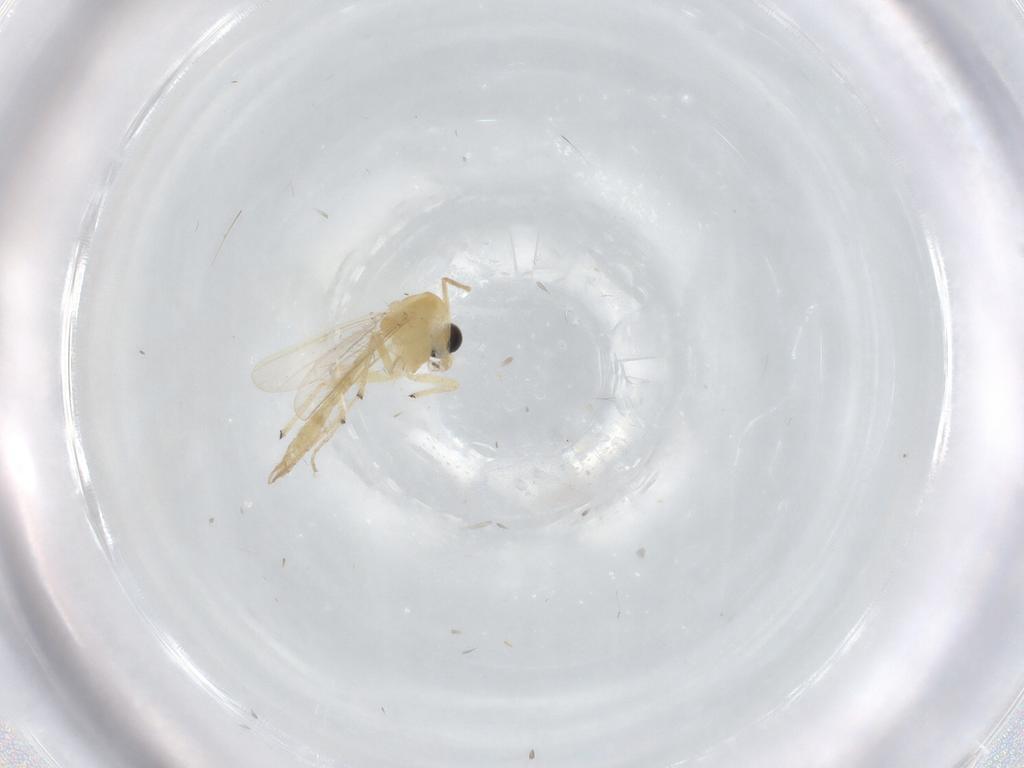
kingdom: Animalia
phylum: Arthropoda
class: Insecta
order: Diptera
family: Chironomidae
